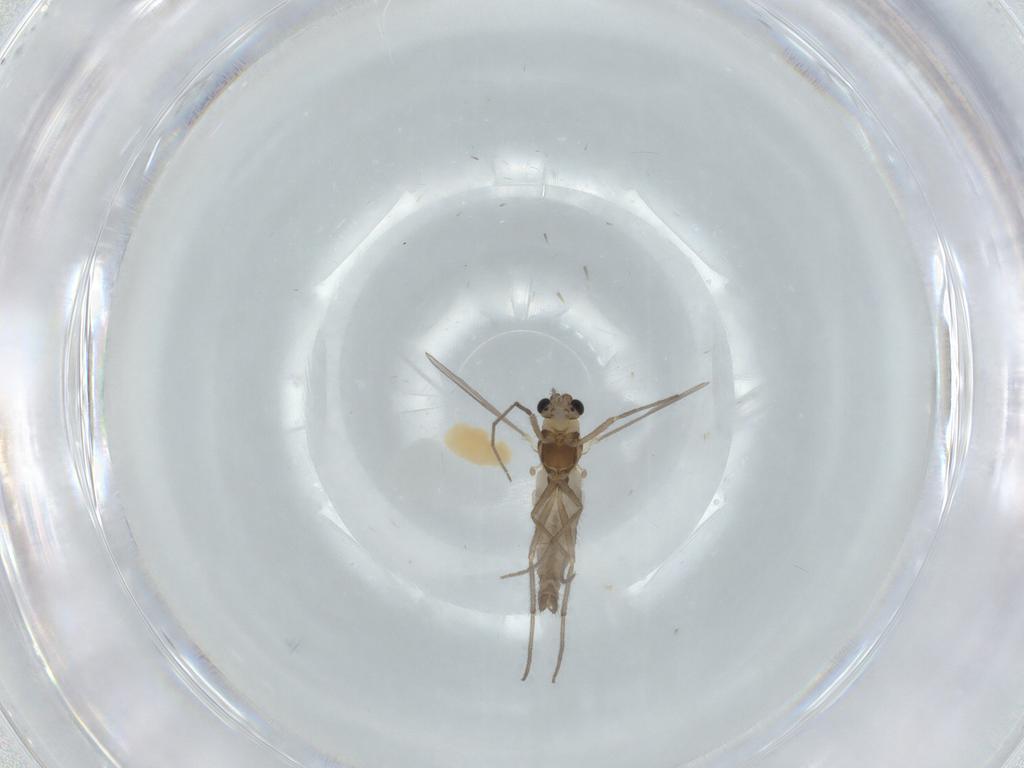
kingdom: Animalia
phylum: Arthropoda
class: Insecta
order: Diptera
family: Chironomidae
